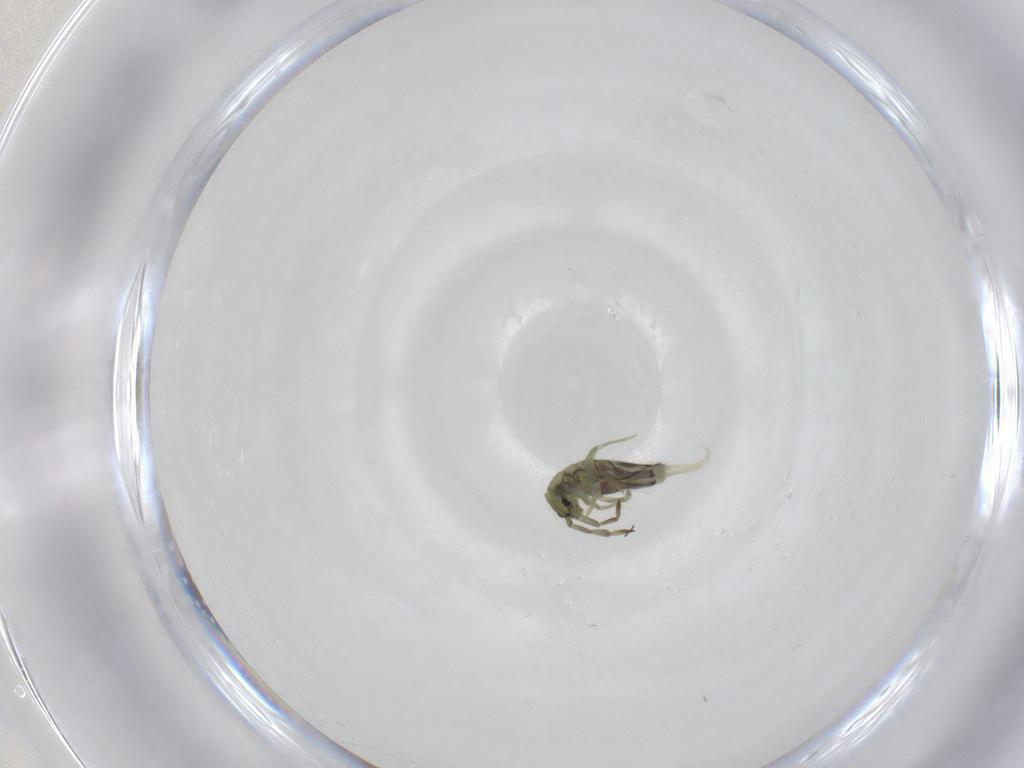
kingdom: Animalia
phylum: Arthropoda
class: Collembola
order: Entomobryomorpha
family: Entomobryidae
